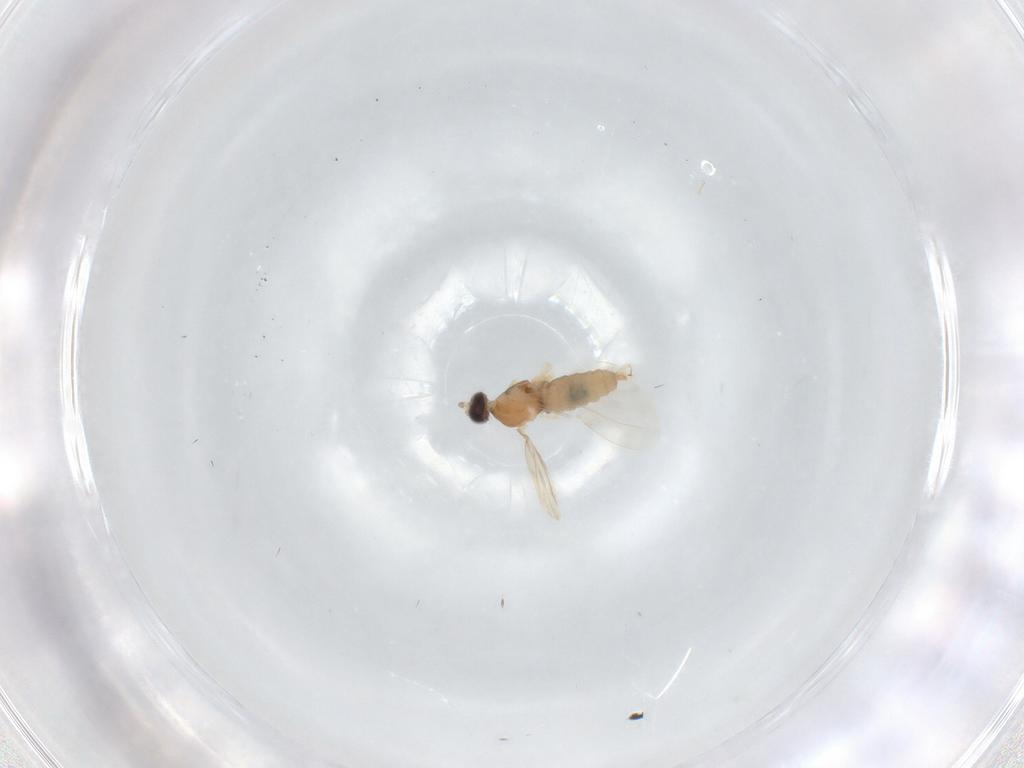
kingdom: Animalia
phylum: Arthropoda
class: Insecta
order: Diptera
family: Cecidomyiidae
